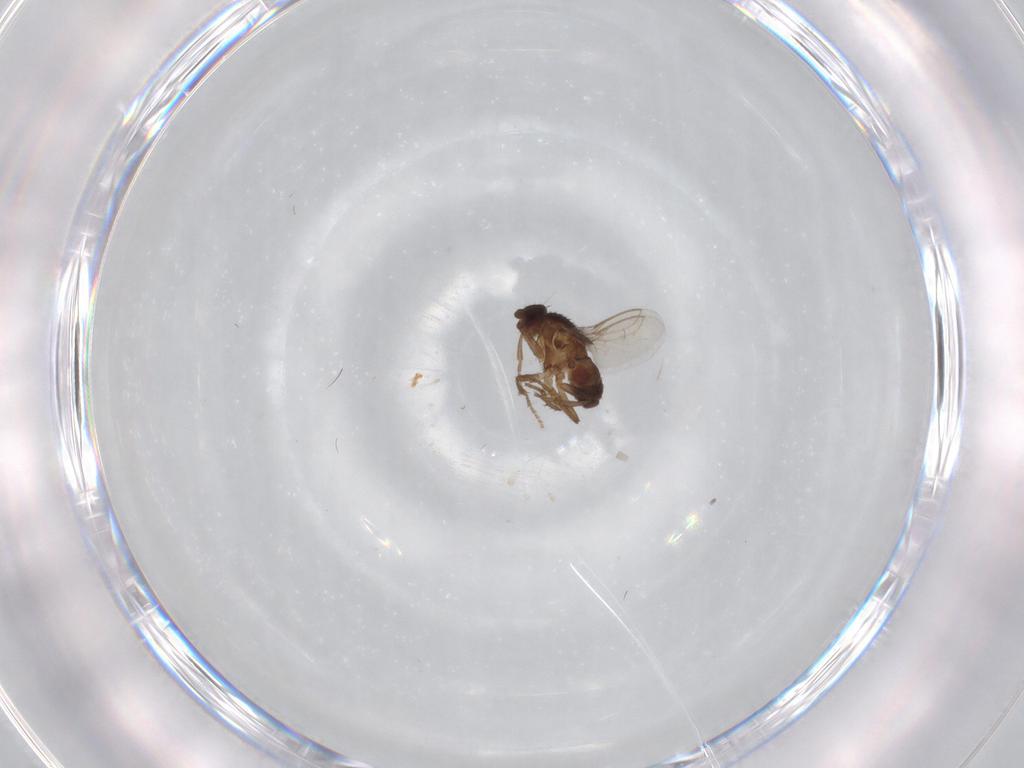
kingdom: Animalia
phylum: Arthropoda
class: Insecta
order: Diptera
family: Sphaeroceridae
